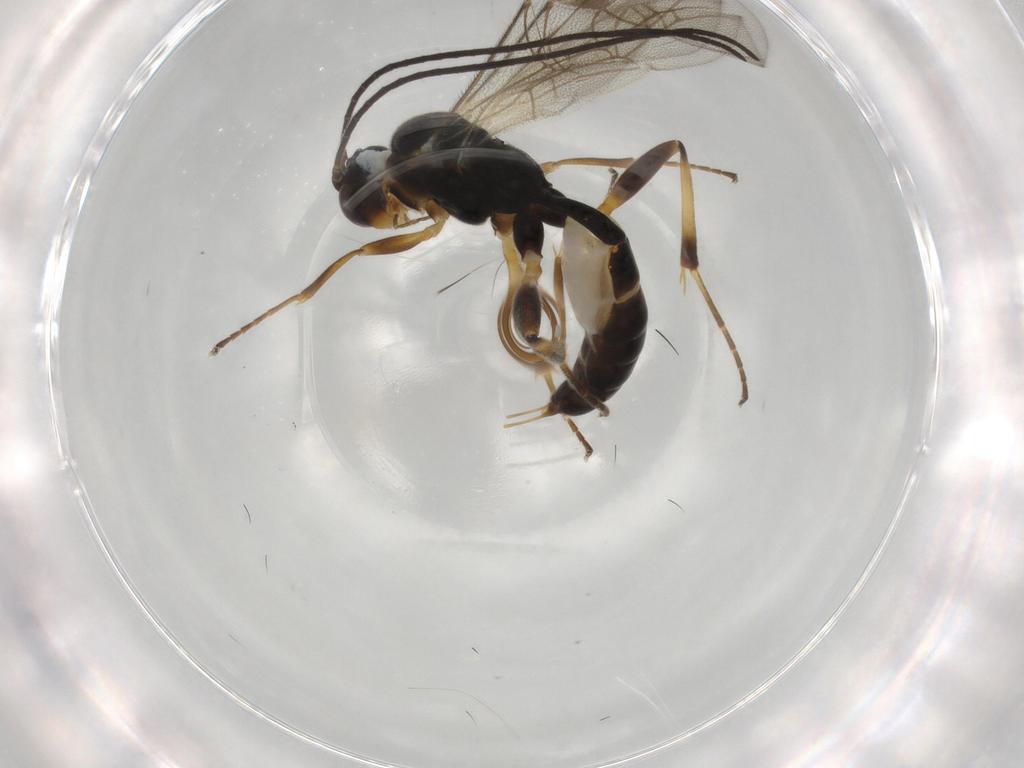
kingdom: Animalia
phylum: Arthropoda
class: Insecta
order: Hymenoptera
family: Ichneumonidae
